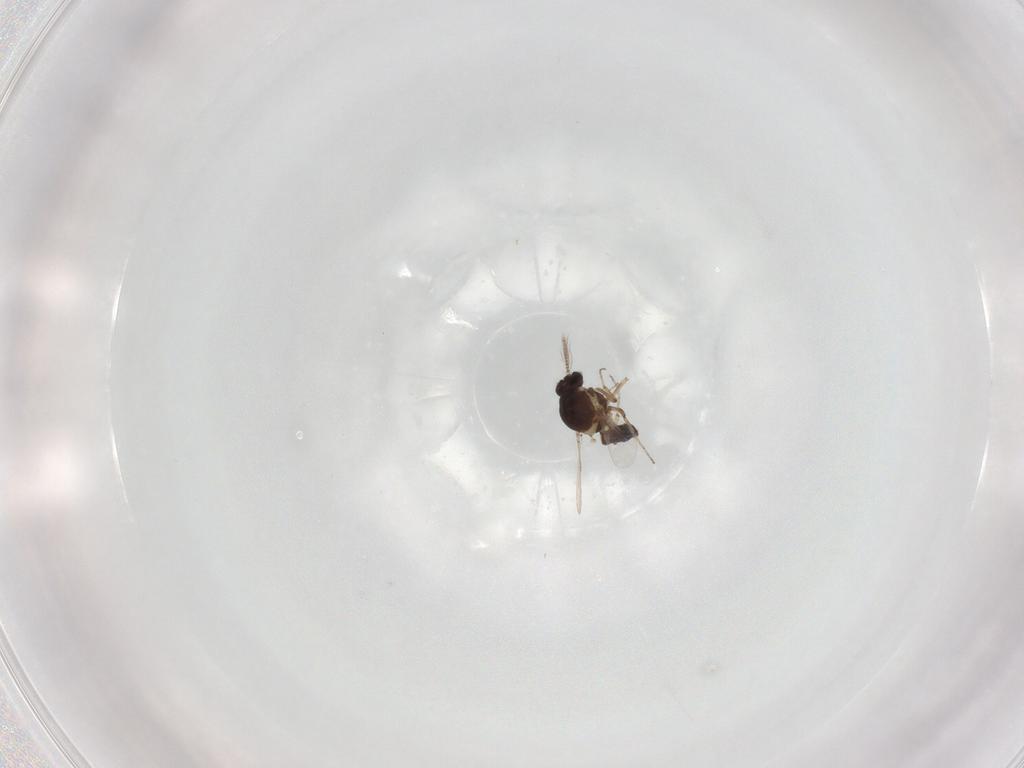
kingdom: Animalia
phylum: Arthropoda
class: Insecta
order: Diptera
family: Ceratopogonidae
